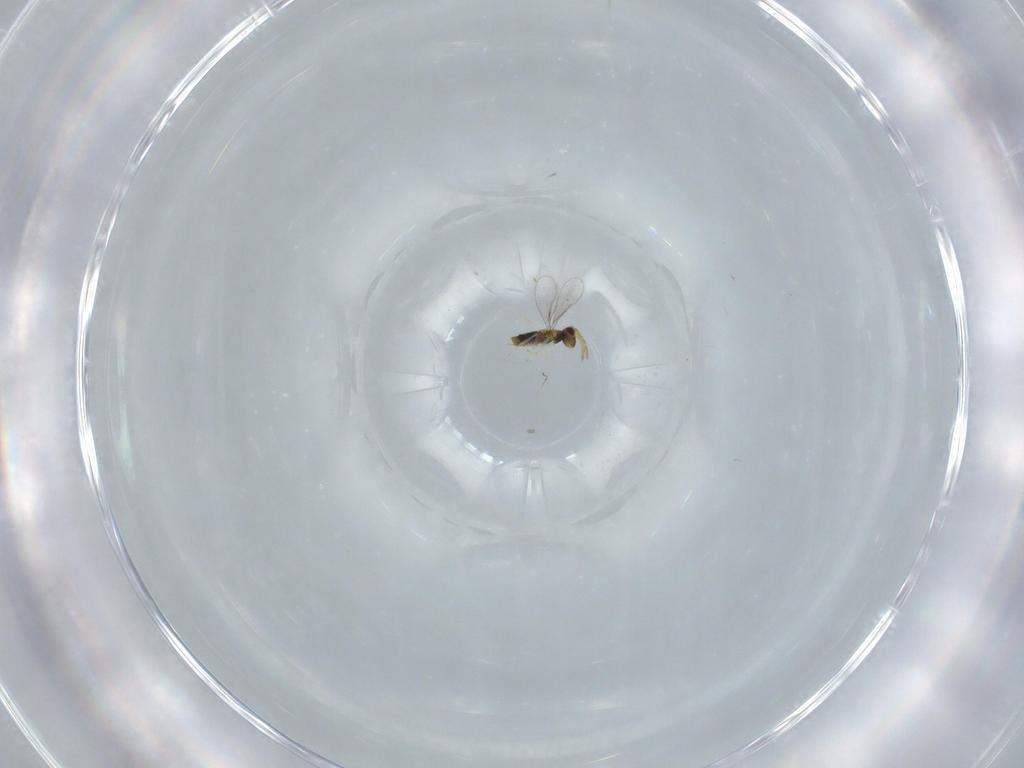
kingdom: Animalia
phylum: Arthropoda
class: Insecta
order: Hymenoptera
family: Aphelinidae
